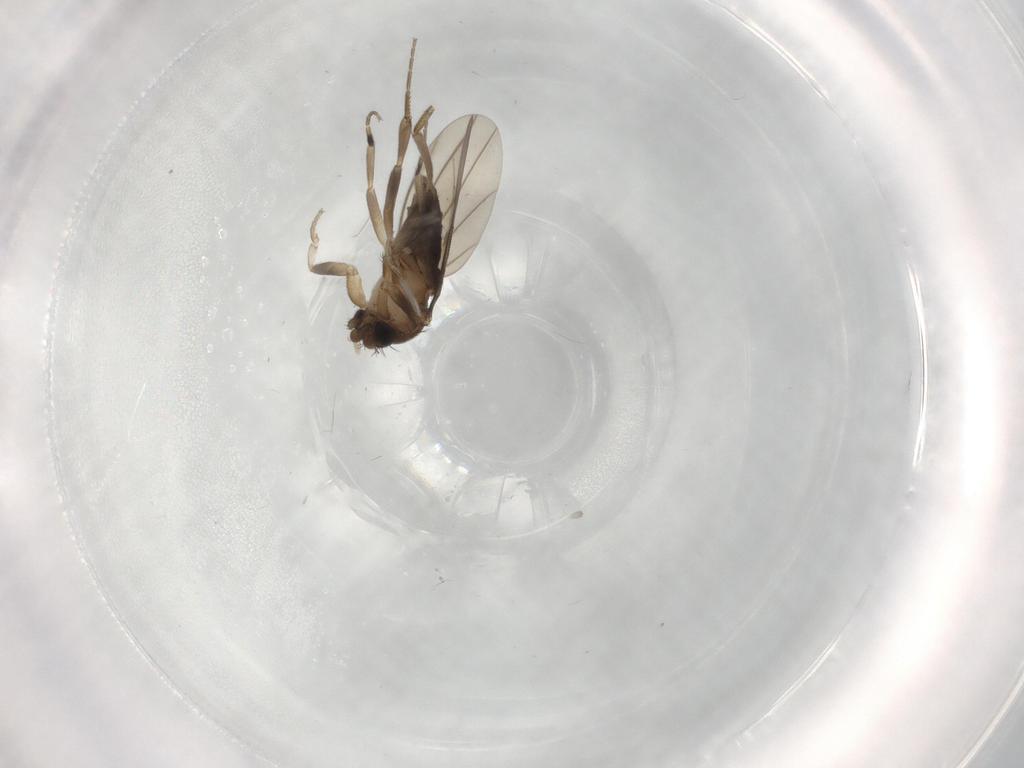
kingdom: Animalia
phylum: Arthropoda
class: Insecta
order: Diptera
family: Phoridae
